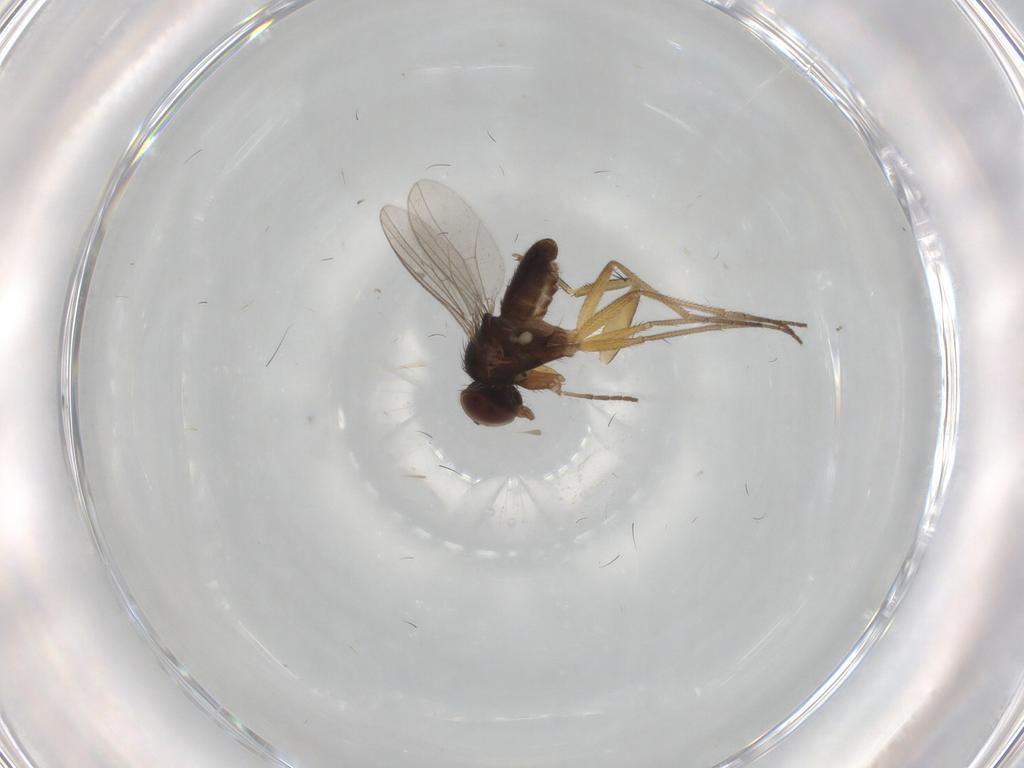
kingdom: Animalia
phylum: Arthropoda
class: Insecta
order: Diptera
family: Dolichopodidae
